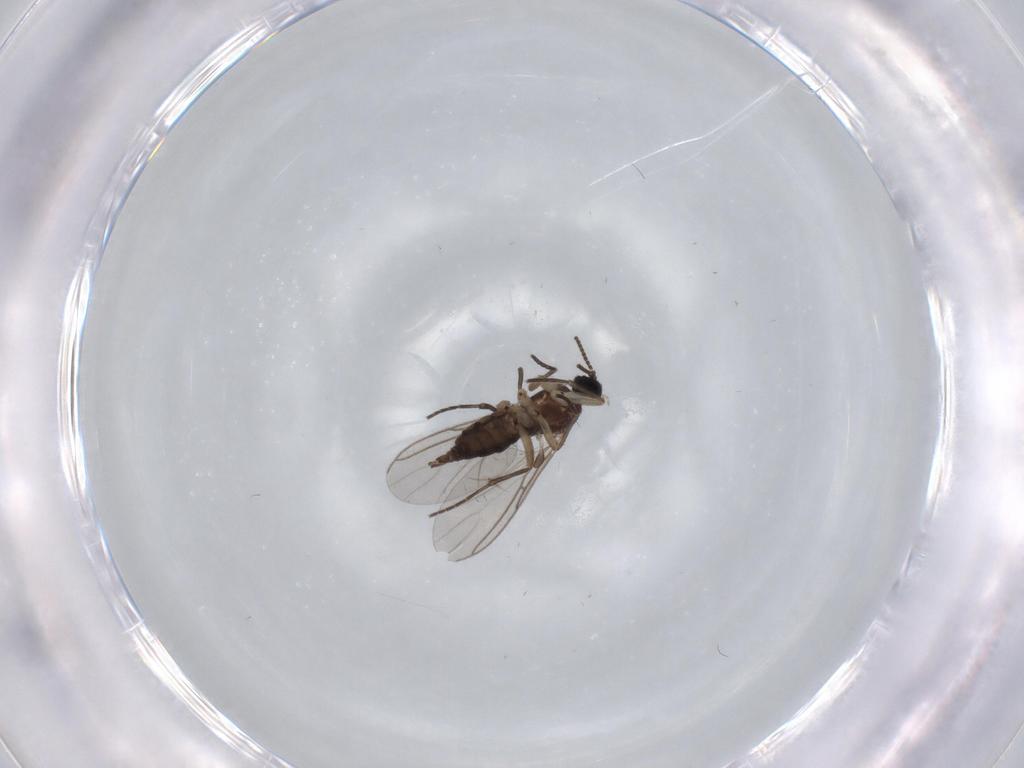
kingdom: Animalia
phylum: Arthropoda
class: Insecta
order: Diptera
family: Sciaridae
